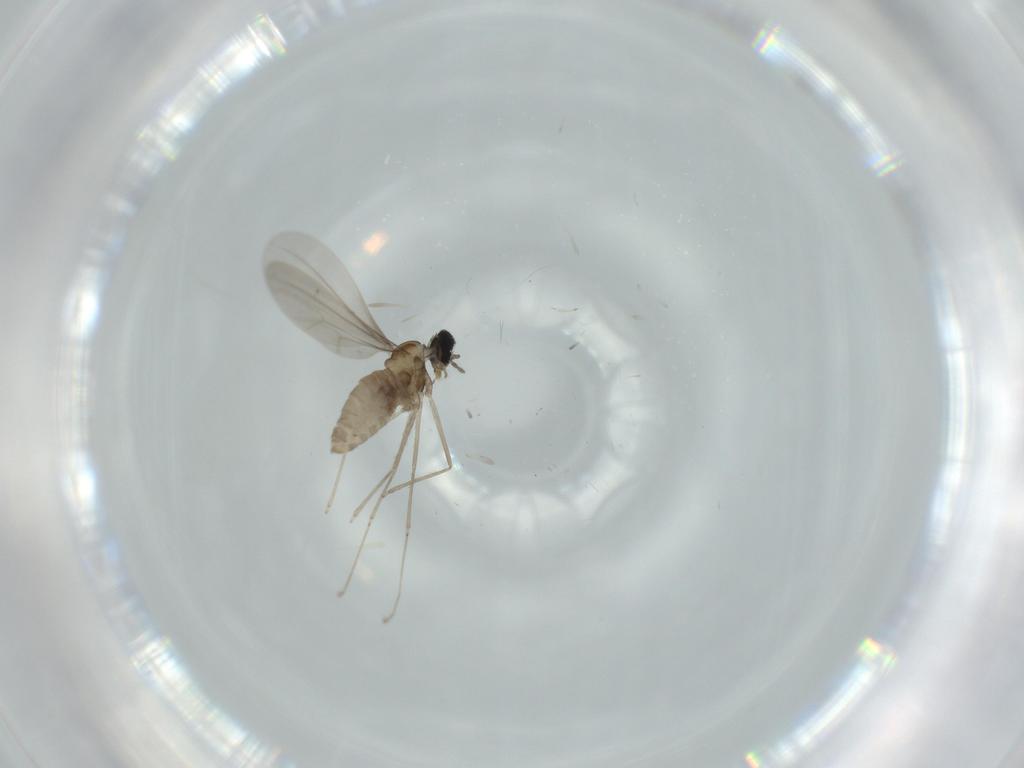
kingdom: Animalia
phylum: Arthropoda
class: Insecta
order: Diptera
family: Cecidomyiidae
